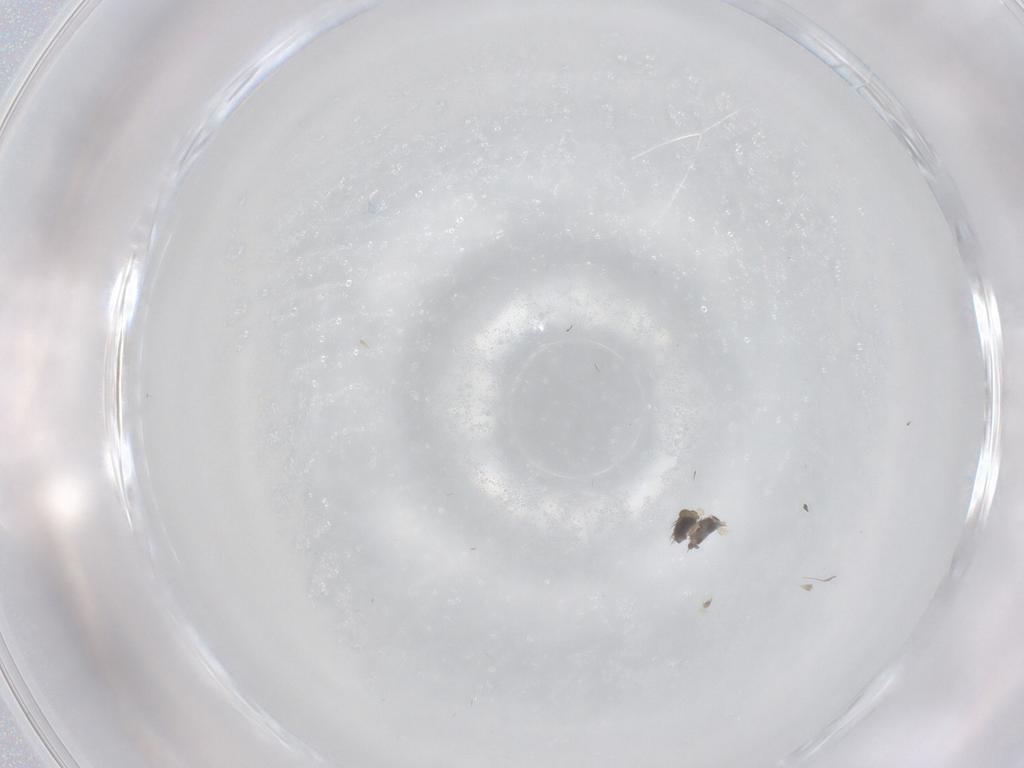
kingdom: Animalia
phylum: Arthropoda
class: Insecta
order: Diptera
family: Phoridae
